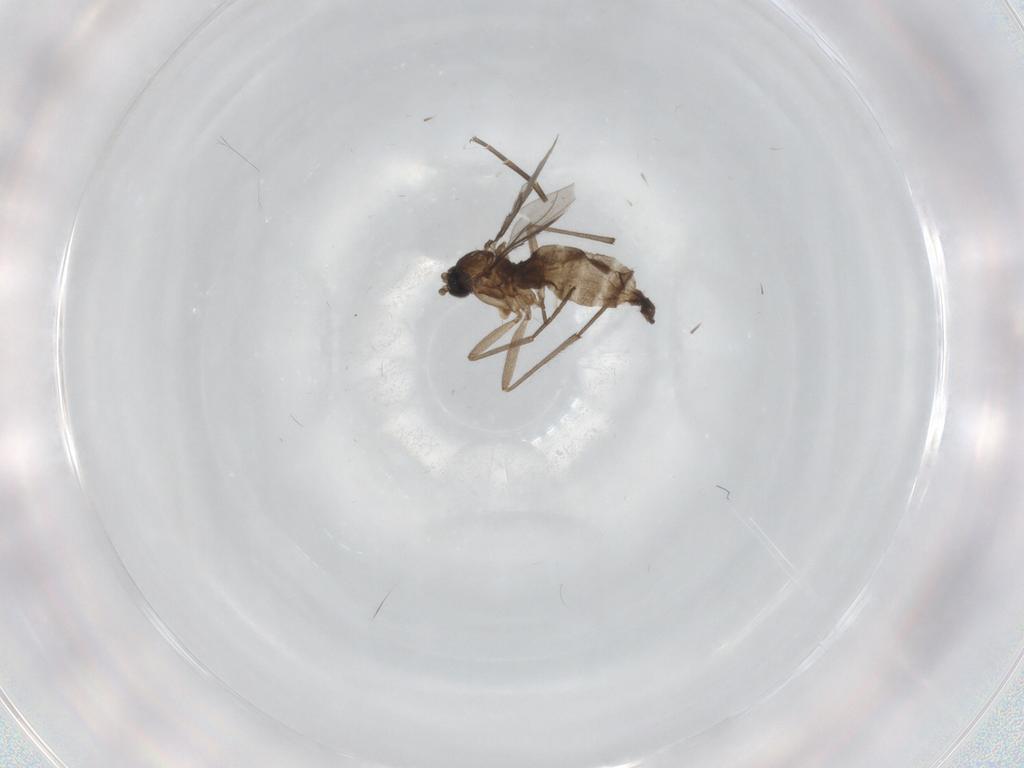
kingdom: Animalia
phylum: Arthropoda
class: Insecta
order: Diptera
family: Sciaridae
